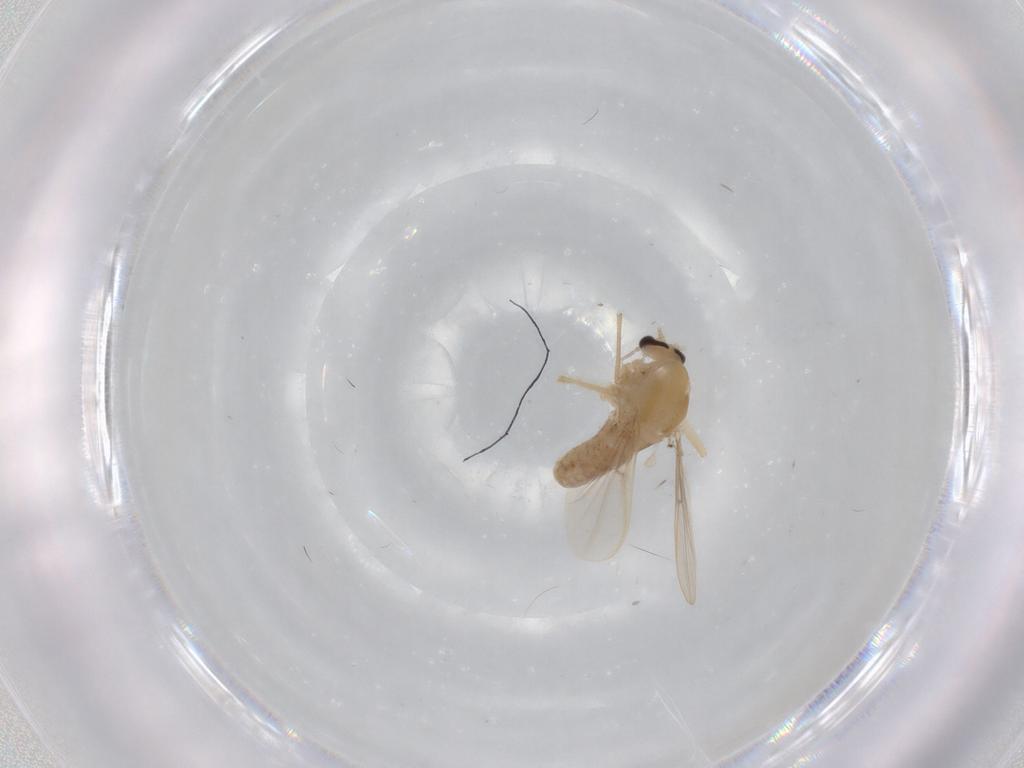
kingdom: Animalia
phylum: Arthropoda
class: Insecta
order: Diptera
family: Chironomidae
